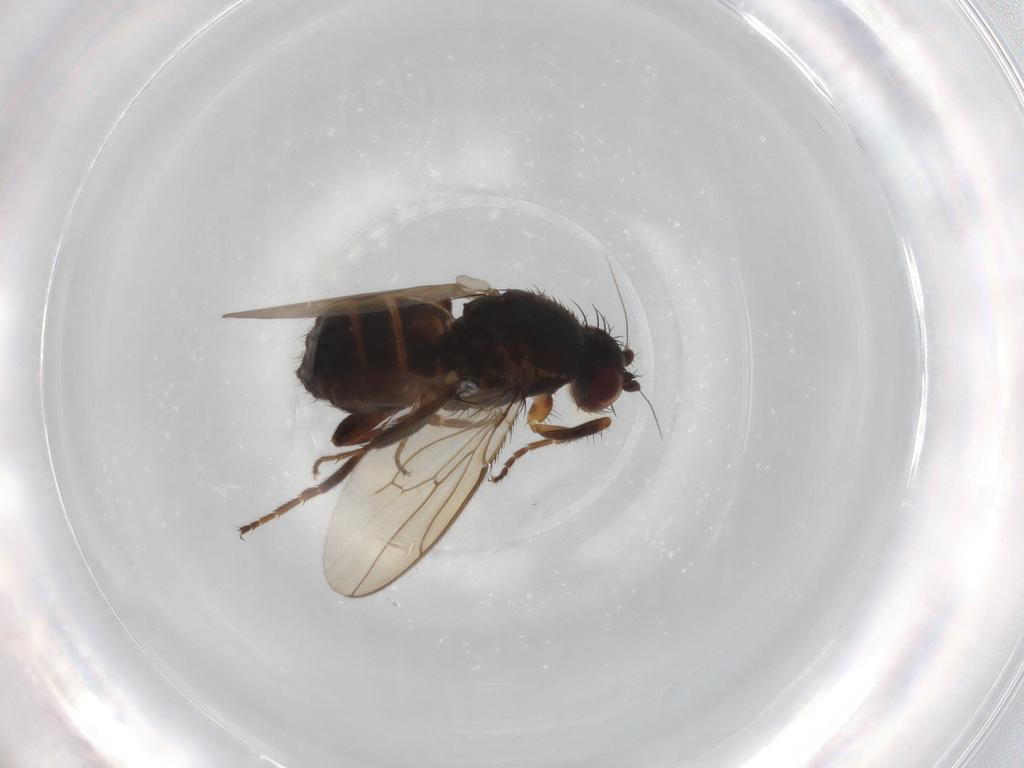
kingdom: Animalia
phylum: Arthropoda
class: Insecta
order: Diptera
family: Sphaeroceridae
